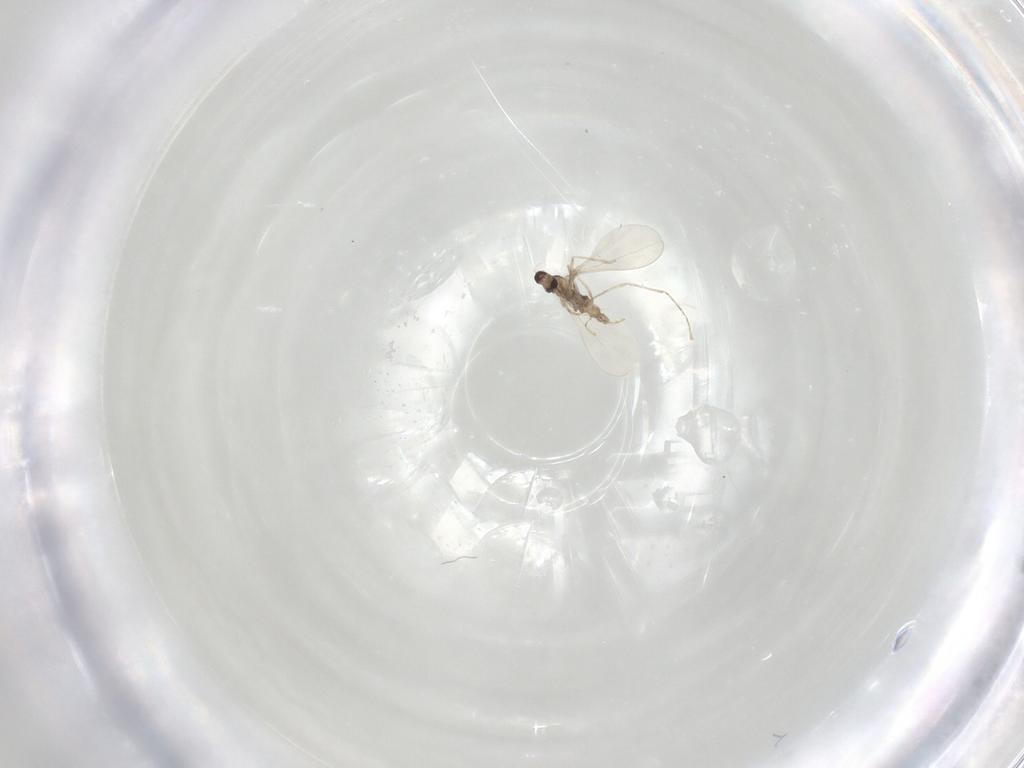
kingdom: Animalia
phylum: Arthropoda
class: Insecta
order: Diptera
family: Cecidomyiidae
